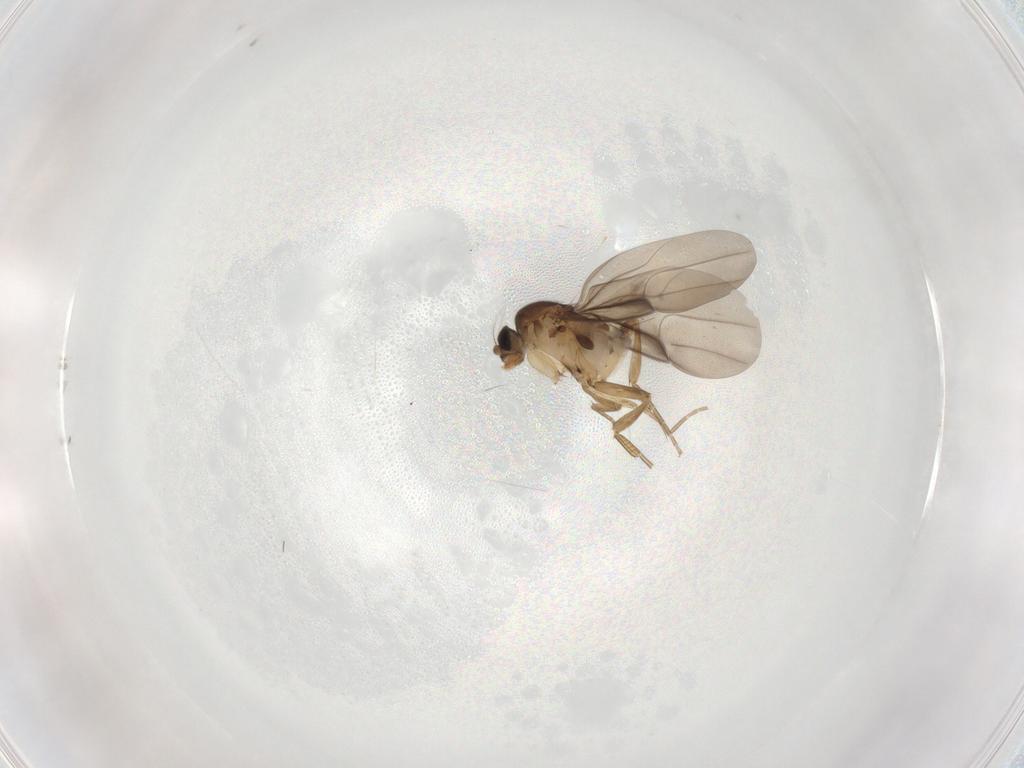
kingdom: Animalia
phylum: Arthropoda
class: Insecta
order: Diptera
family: Phoridae
